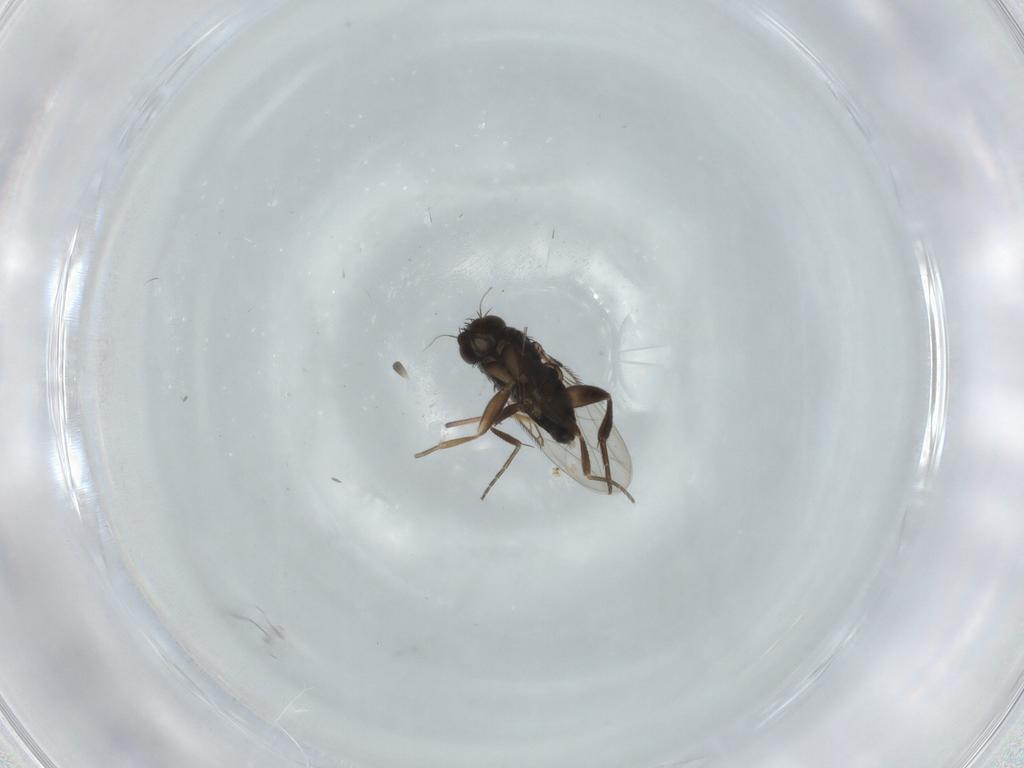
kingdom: Animalia
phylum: Arthropoda
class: Insecta
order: Diptera
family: Phoridae
